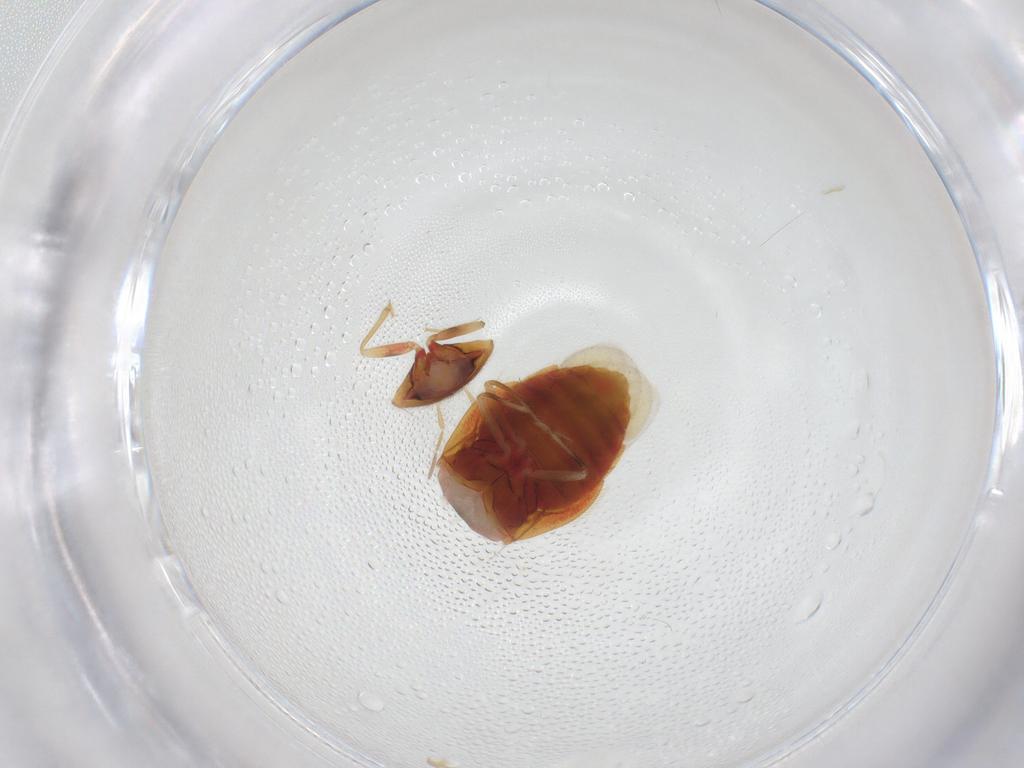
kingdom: Animalia
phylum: Arthropoda
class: Insecta
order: Hemiptera
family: Anthocoridae
